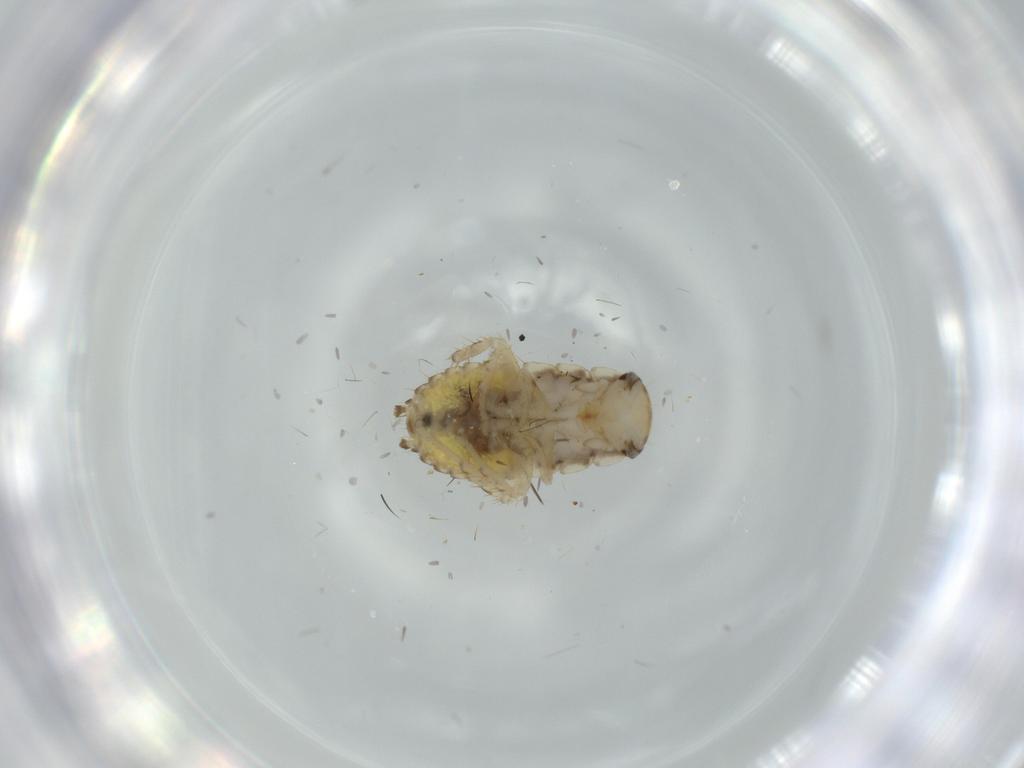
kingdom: Animalia
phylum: Arthropoda
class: Insecta
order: Blattodea
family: Ectobiidae
